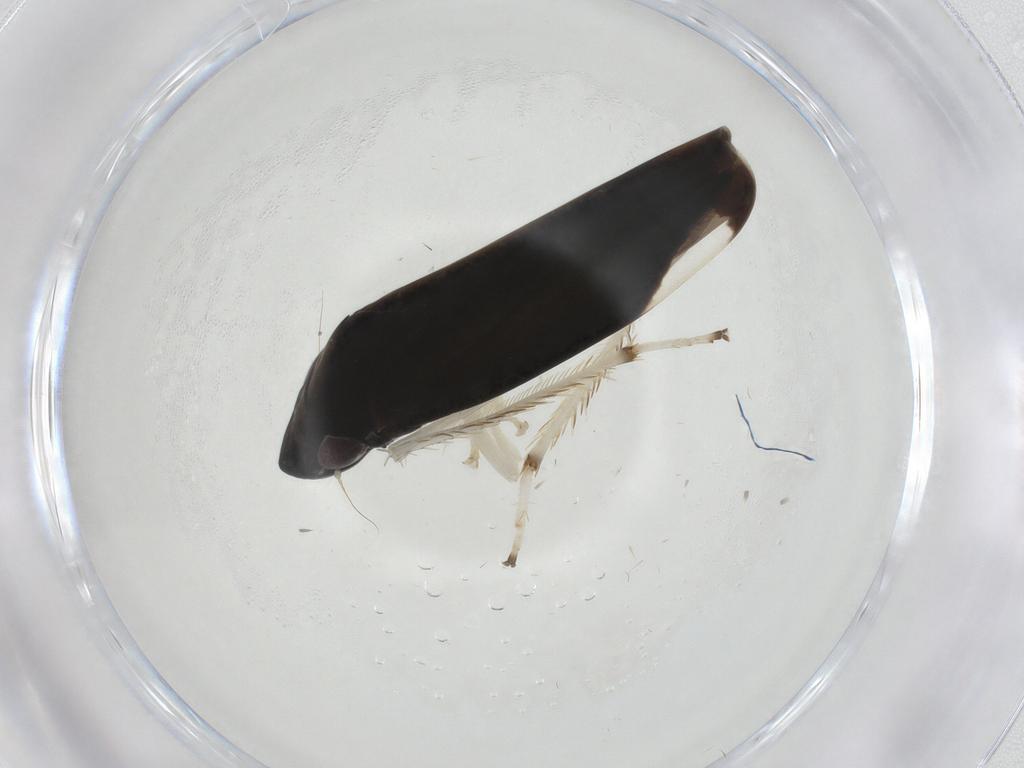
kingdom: Animalia
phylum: Arthropoda
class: Insecta
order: Hemiptera
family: Cicadellidae
